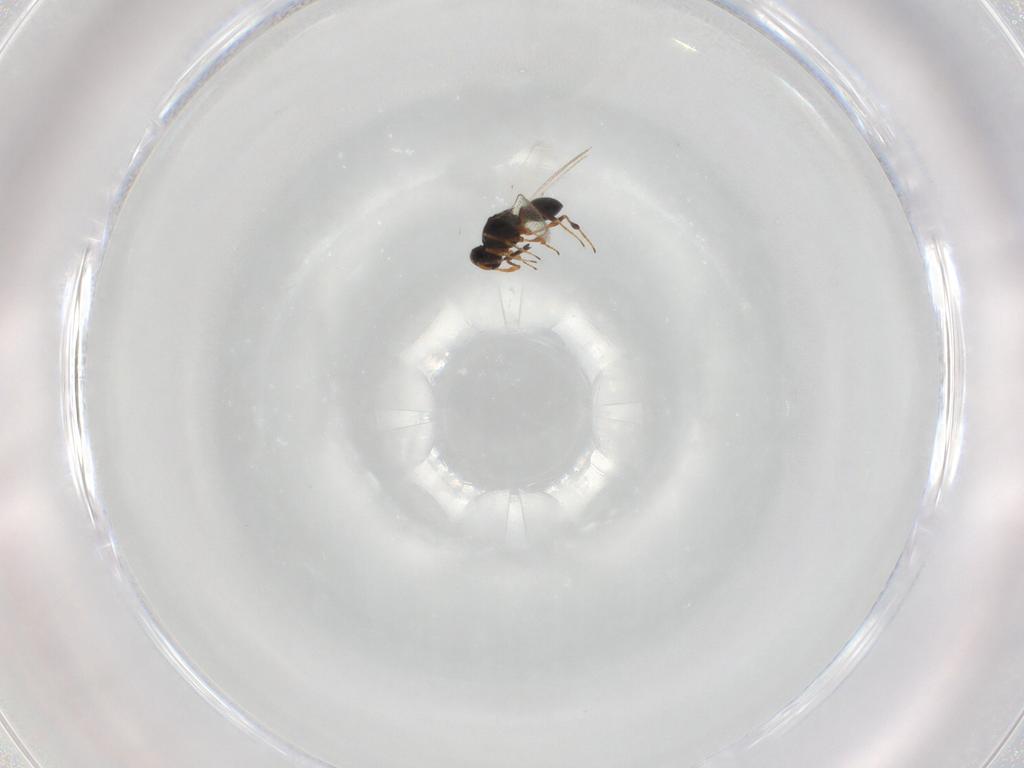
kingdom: Animalia
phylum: Arthropoda
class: Insecta
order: Hymenoptera
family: Platygastridae
